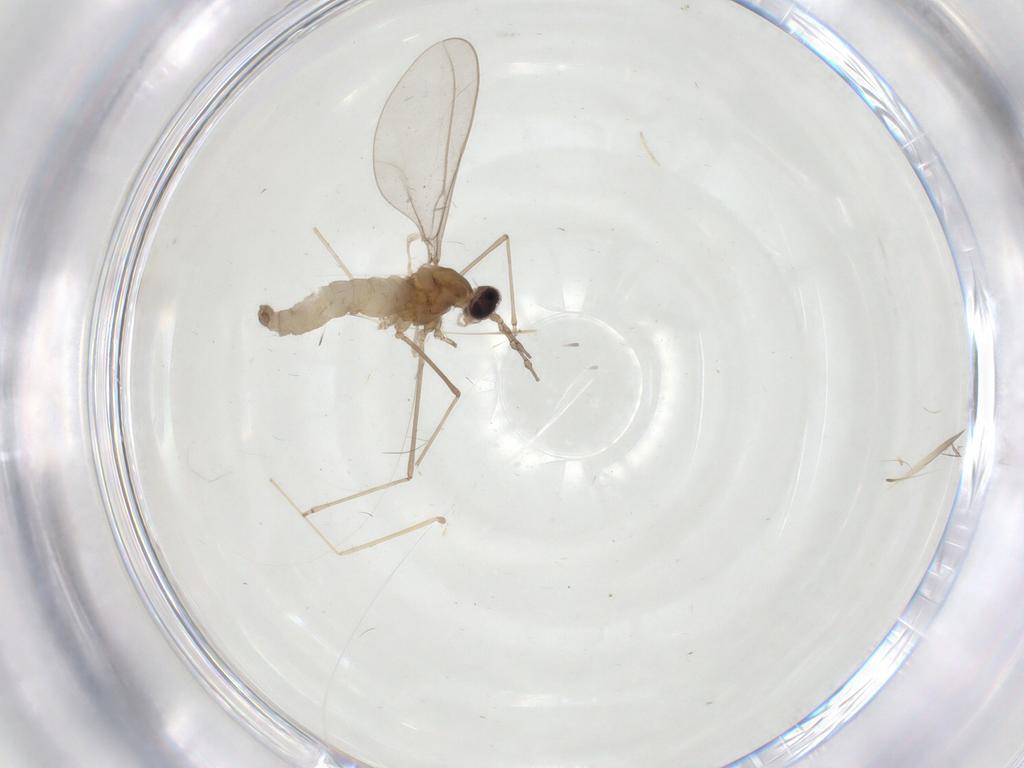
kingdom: Animalia
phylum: Arthropoda
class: Insecta
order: Diptera
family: Cecidomyiidae
